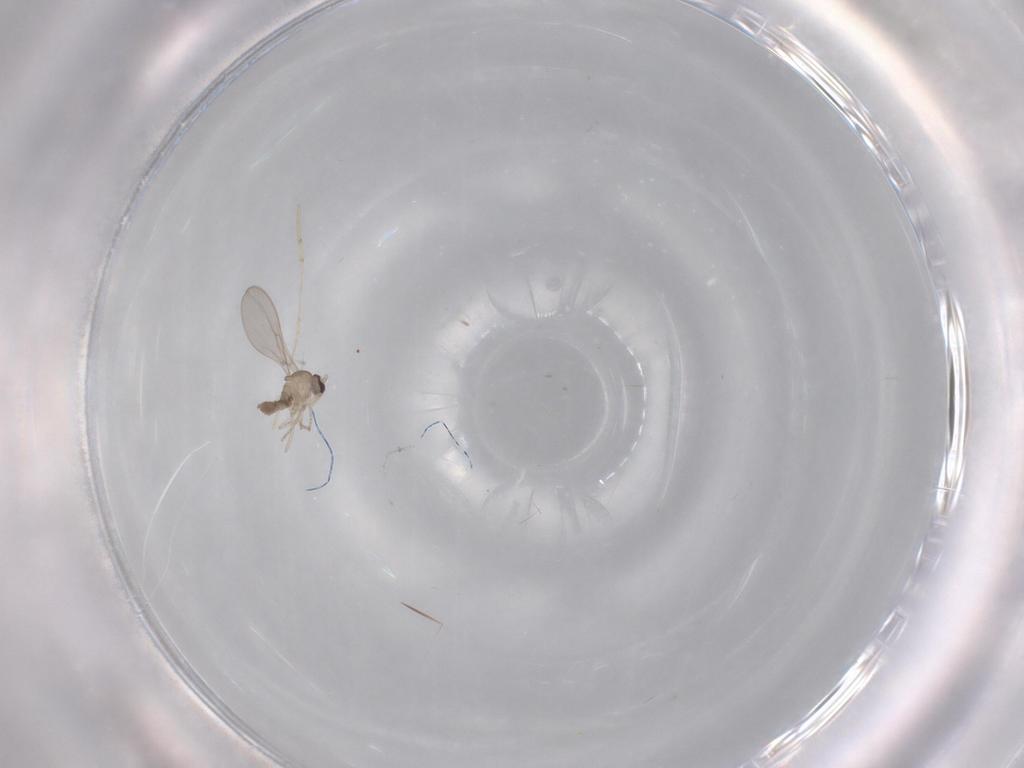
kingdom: Animalia
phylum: Arthropoda
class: Insecta
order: Diptera
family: Cecidomyiidae
